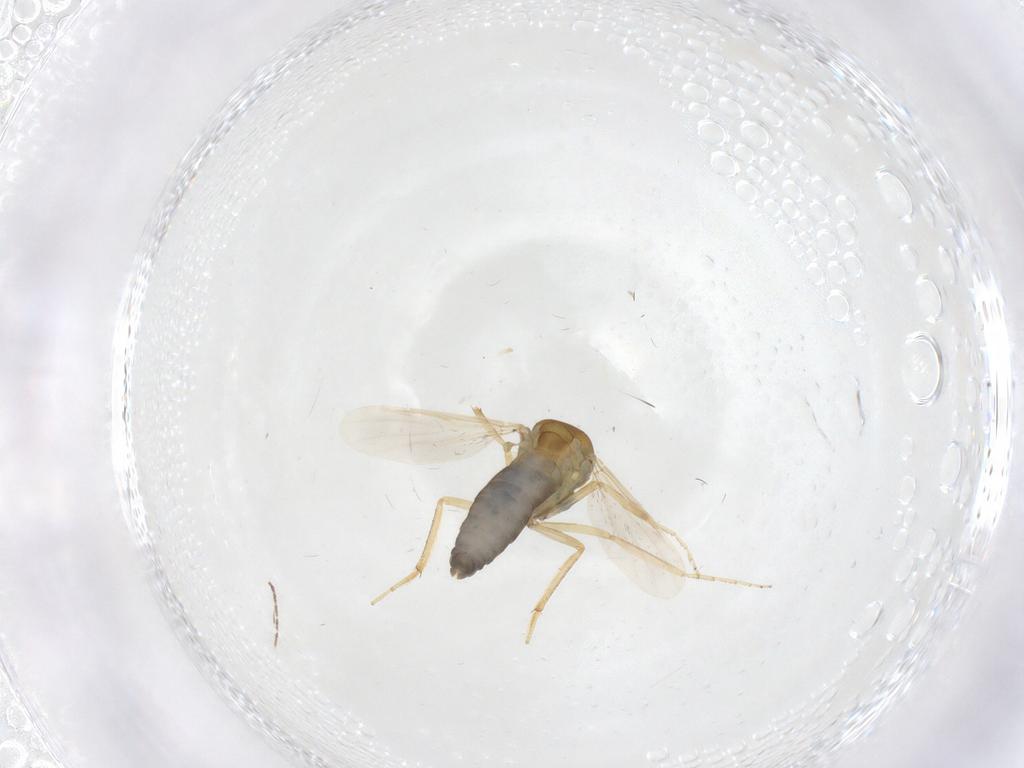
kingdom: Animalia
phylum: Arthropoda
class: Insecta
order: Diptera
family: Ceratopogonidae
